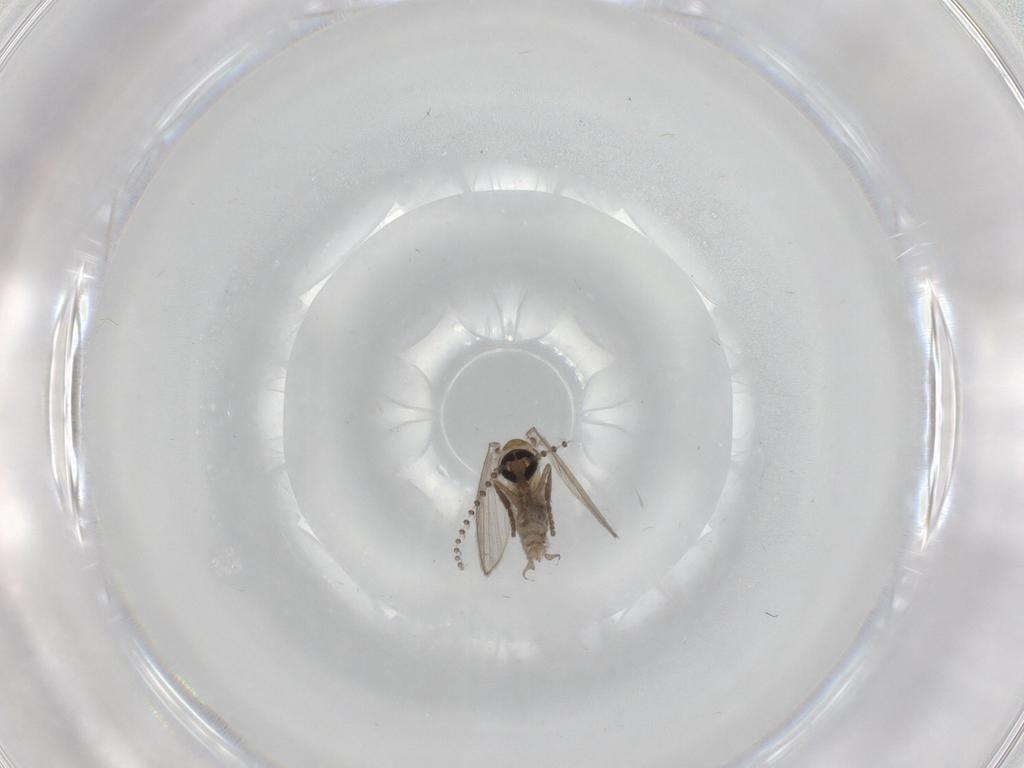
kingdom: Animalia
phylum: Arthropoda
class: Insecta
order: Diptera
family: Psychodidae
